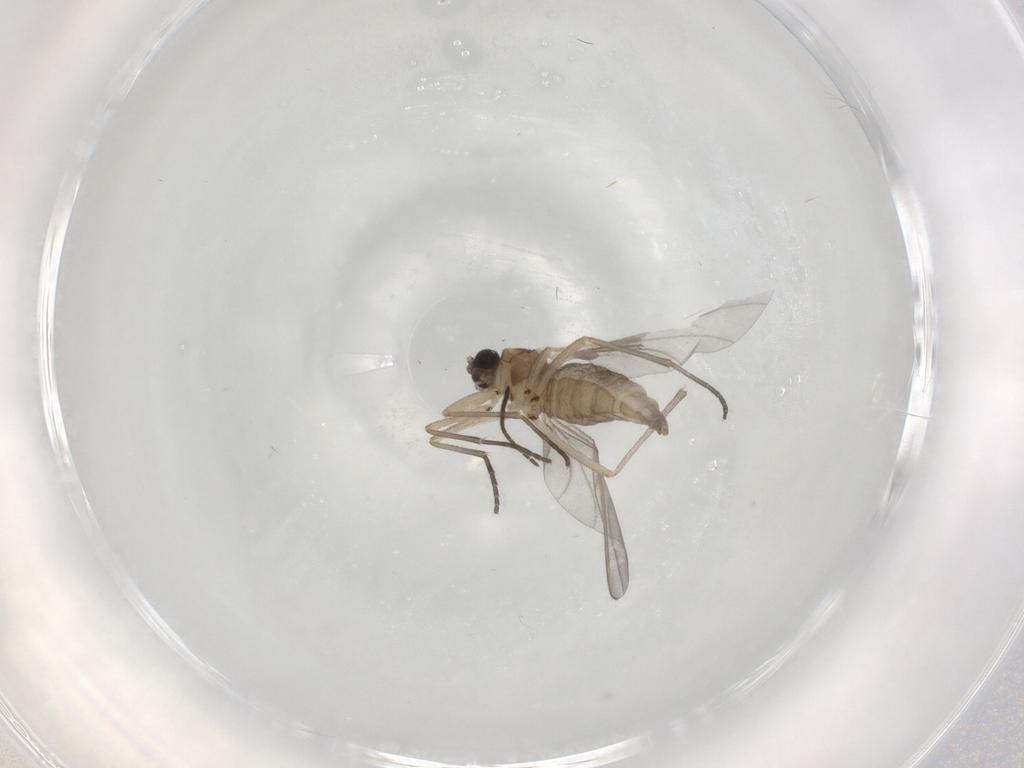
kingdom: Animalia
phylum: Arthropoda
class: Insecta
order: Diptera
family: Sciaridae
